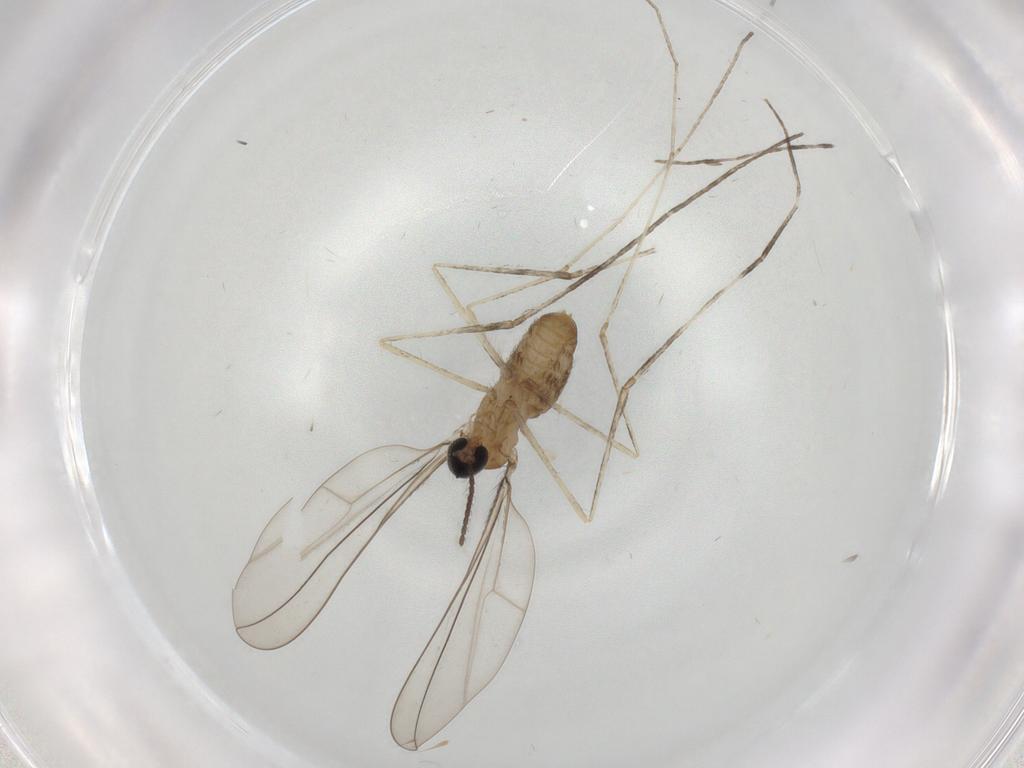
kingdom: Animalia
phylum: Arthropoda
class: Insecta
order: Diptera
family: Cecidomyiidae
